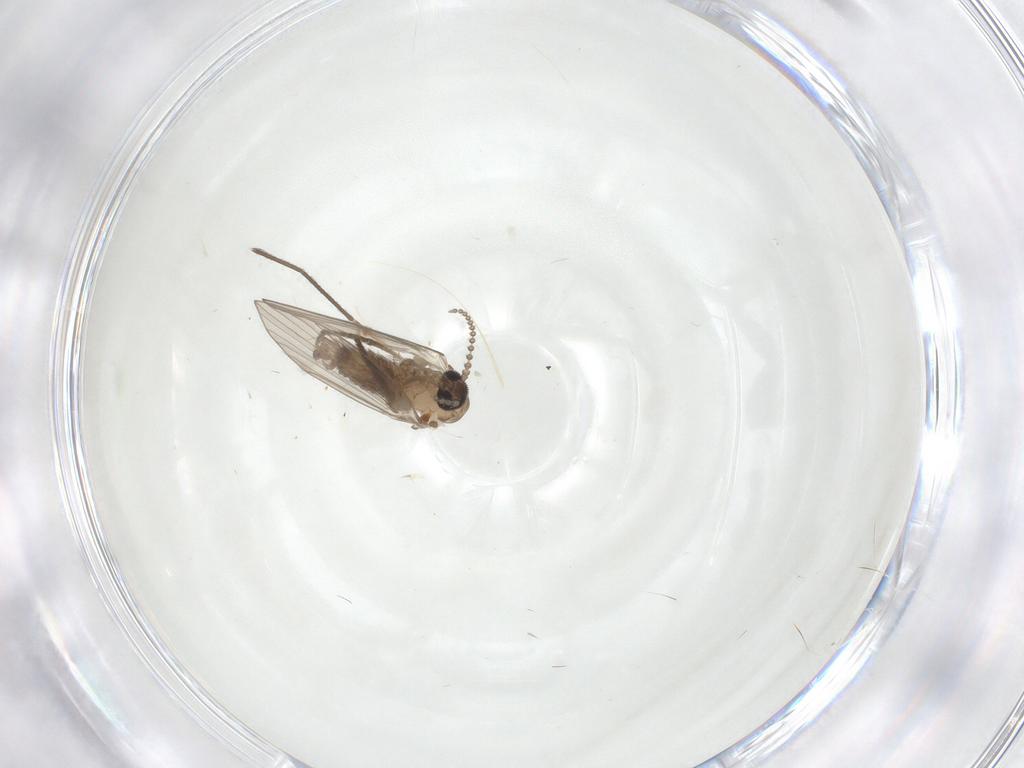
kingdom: Animalia
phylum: Arthropoda
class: Insecta
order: Diptera
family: Psychodidae
